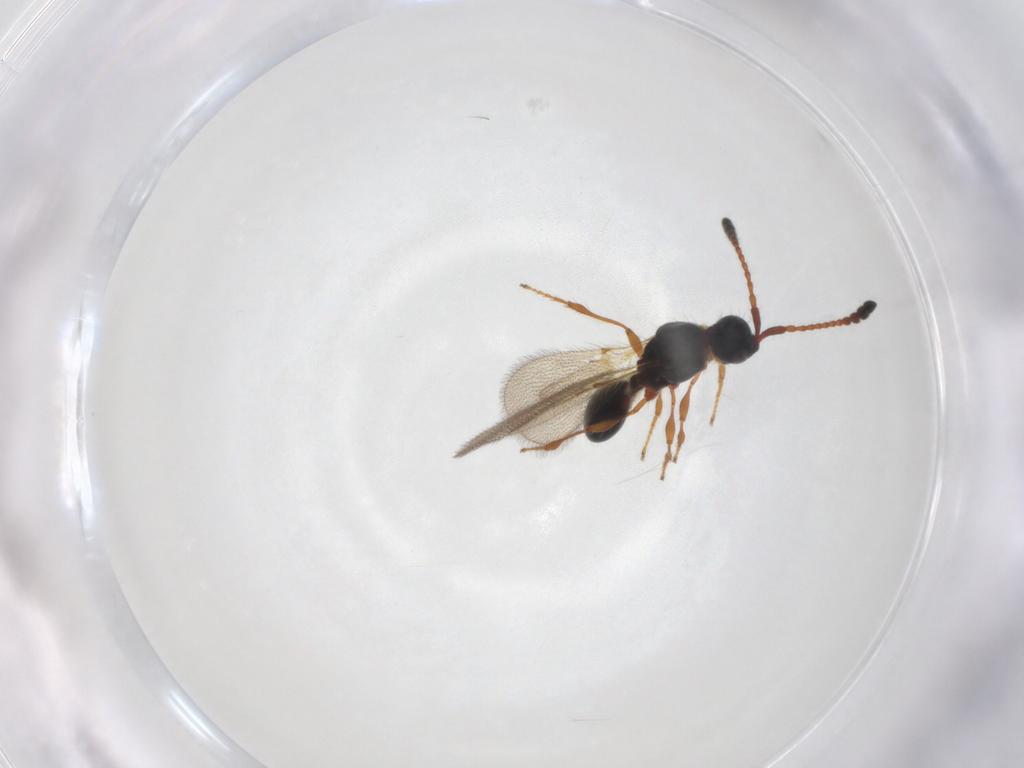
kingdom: Animalia
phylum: Arthropoda
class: Insecta
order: Hymenoptera
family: Diapriidae
